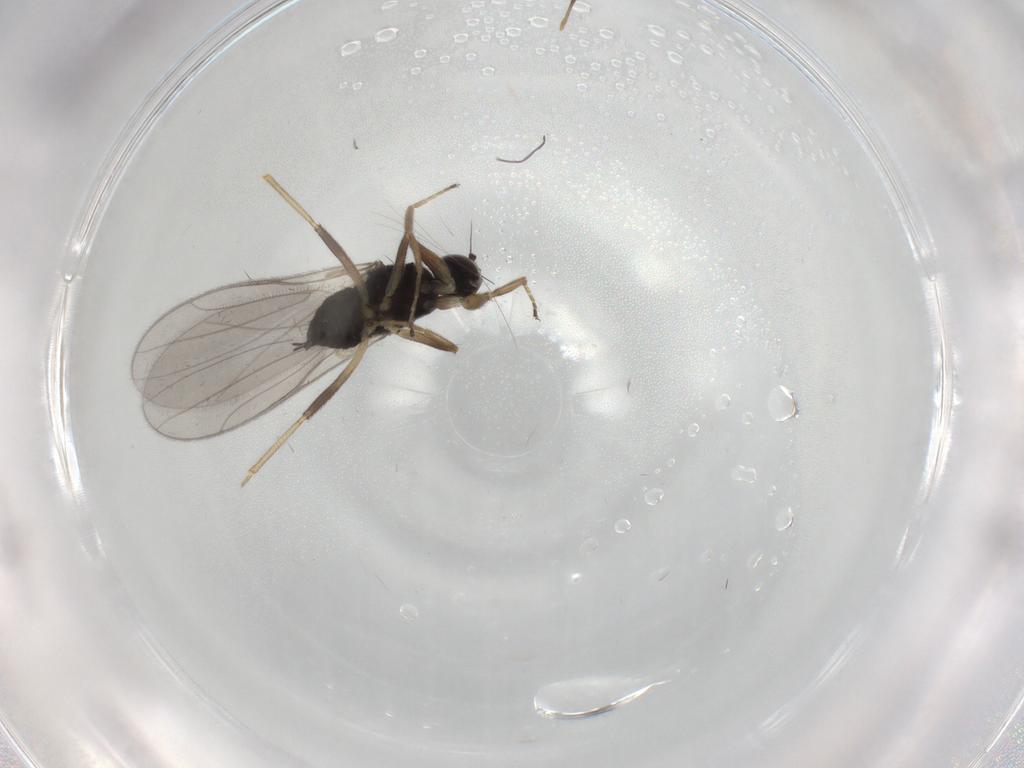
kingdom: Animalia
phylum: Arthropoda
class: Insecta
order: Diptera
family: Hybotidae
